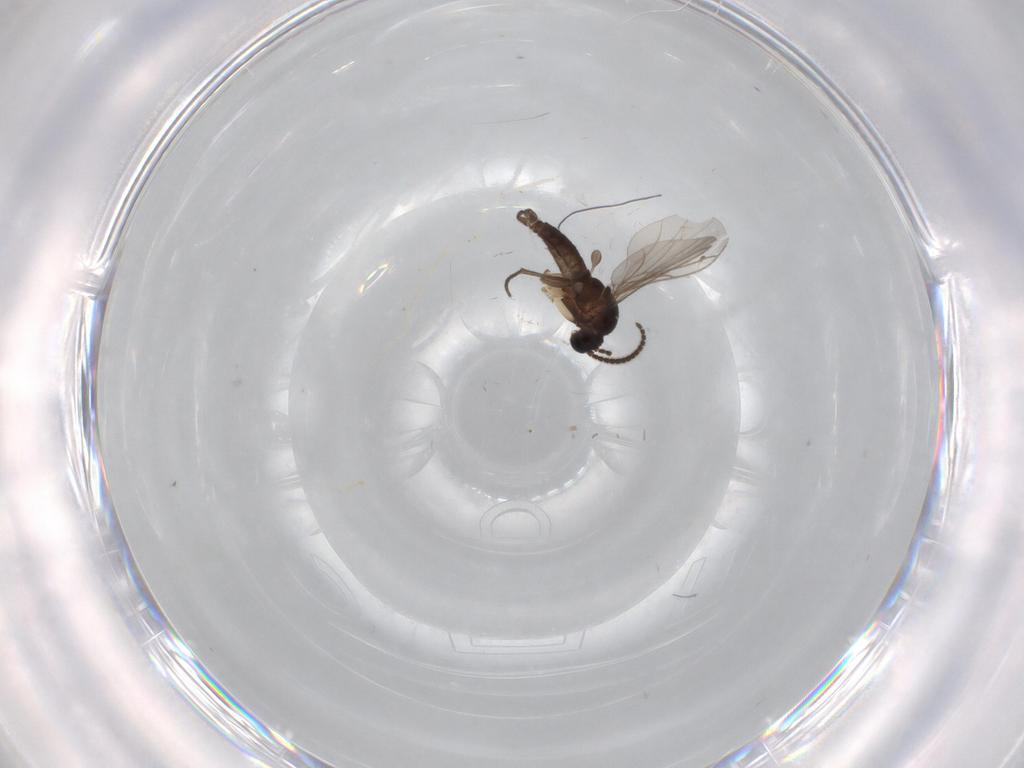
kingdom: Animalia
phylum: Arthropoda
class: Insecta
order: Diptera
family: Sciaridae
